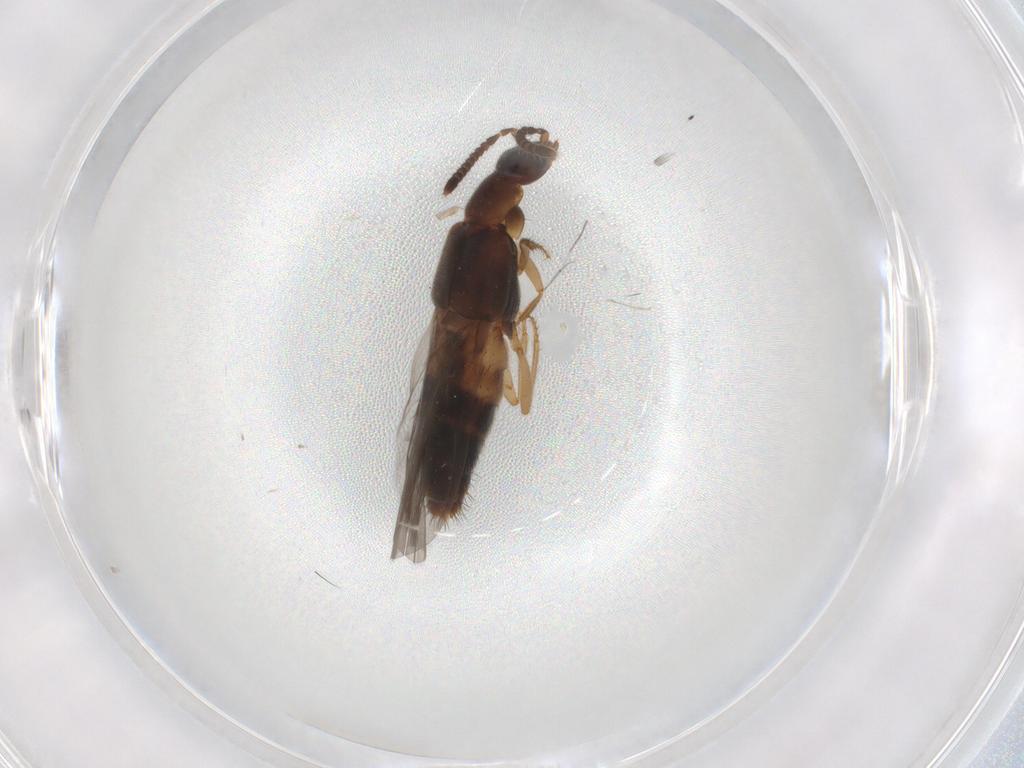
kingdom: Animalia
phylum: Arthropoda
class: Insecta
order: Coleoptera
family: Staphylinidae
